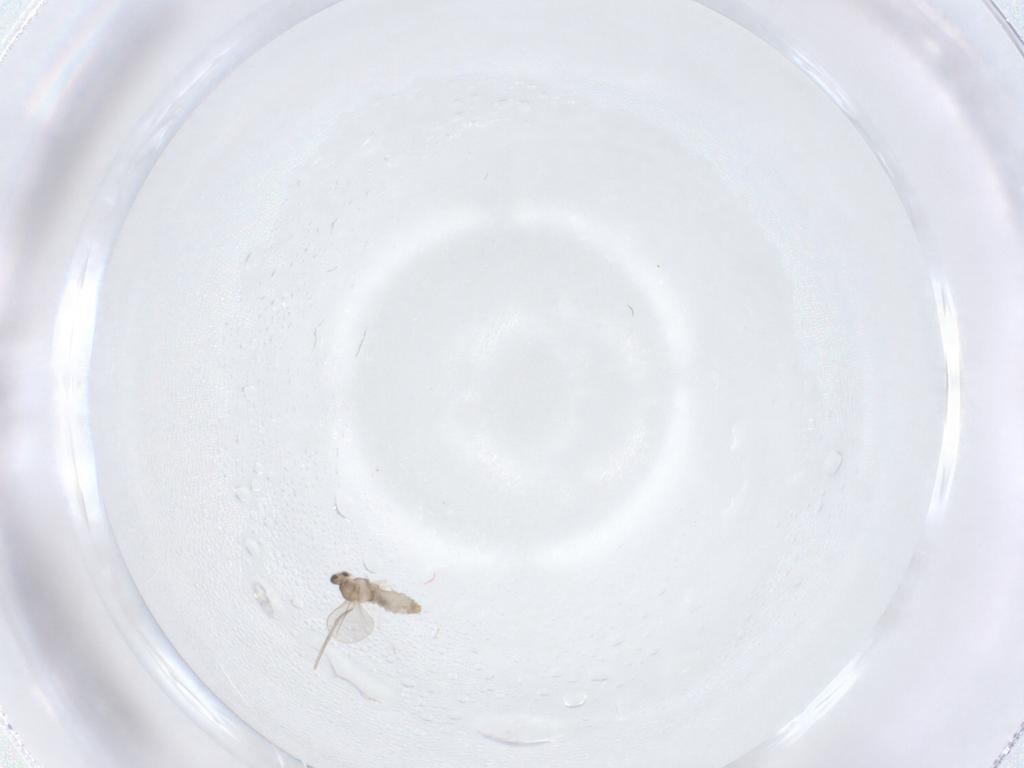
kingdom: Animalia
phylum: Arthropoda
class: Insecta
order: Diptera
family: Cecidomyiidae
